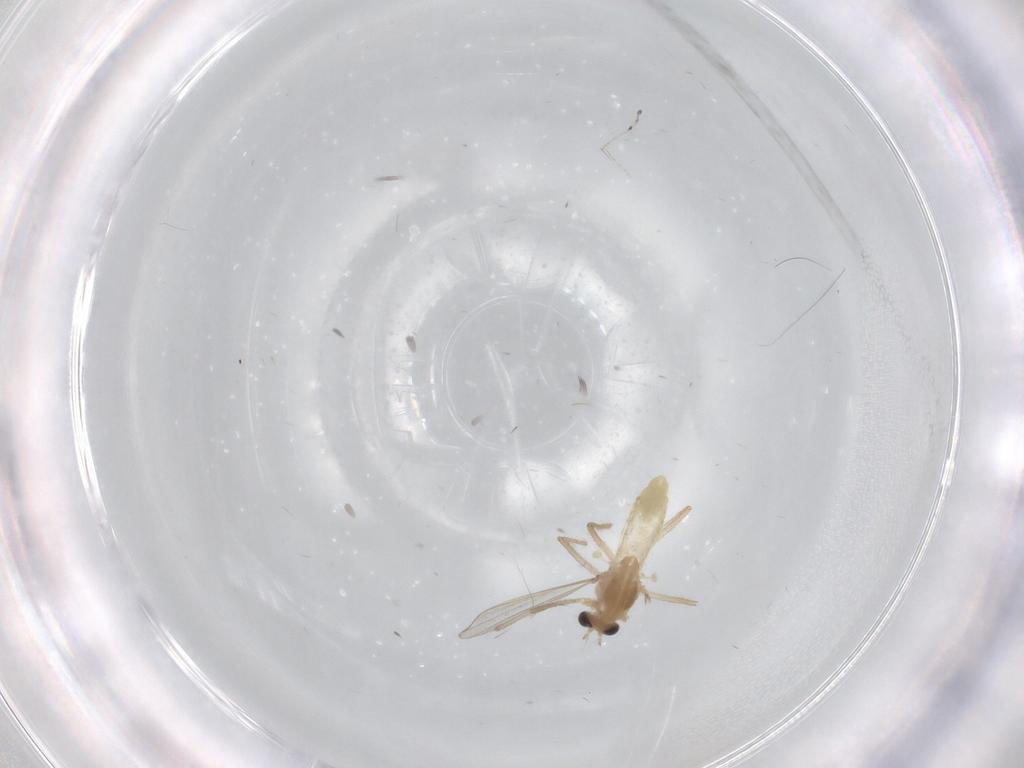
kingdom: Animalia
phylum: Arthropoda
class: Insecta
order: Diptera
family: Chironomidae
